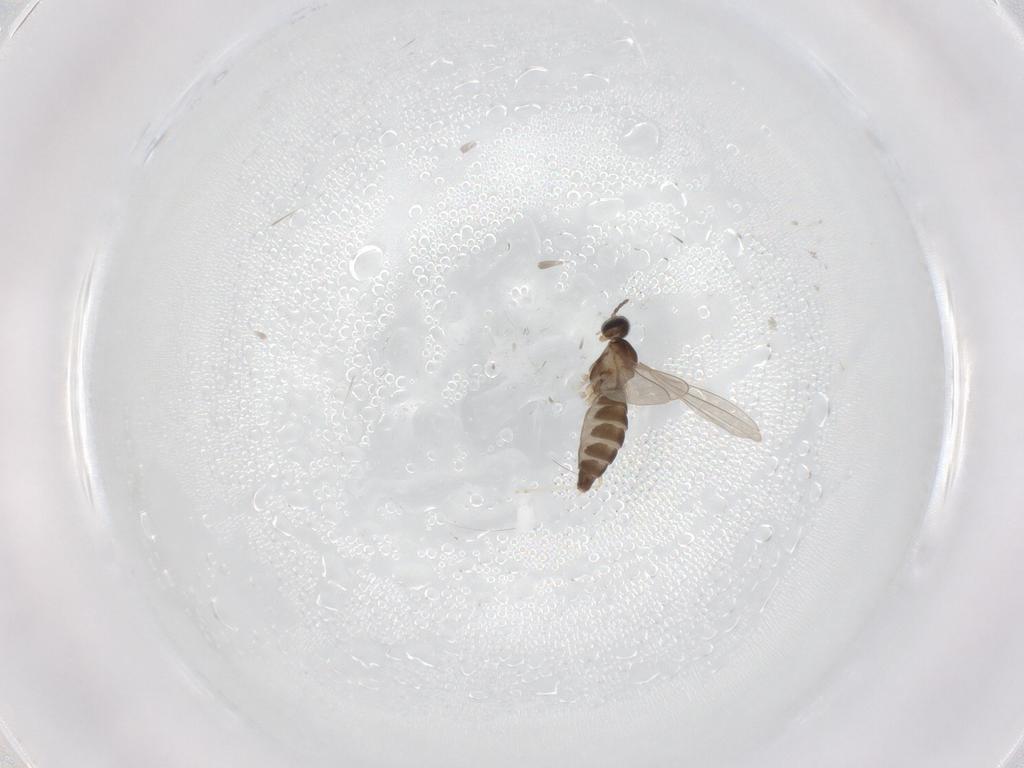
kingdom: Animalia
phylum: Arthropoda
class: Insecta
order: Diptera
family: Cecidomyiidae
